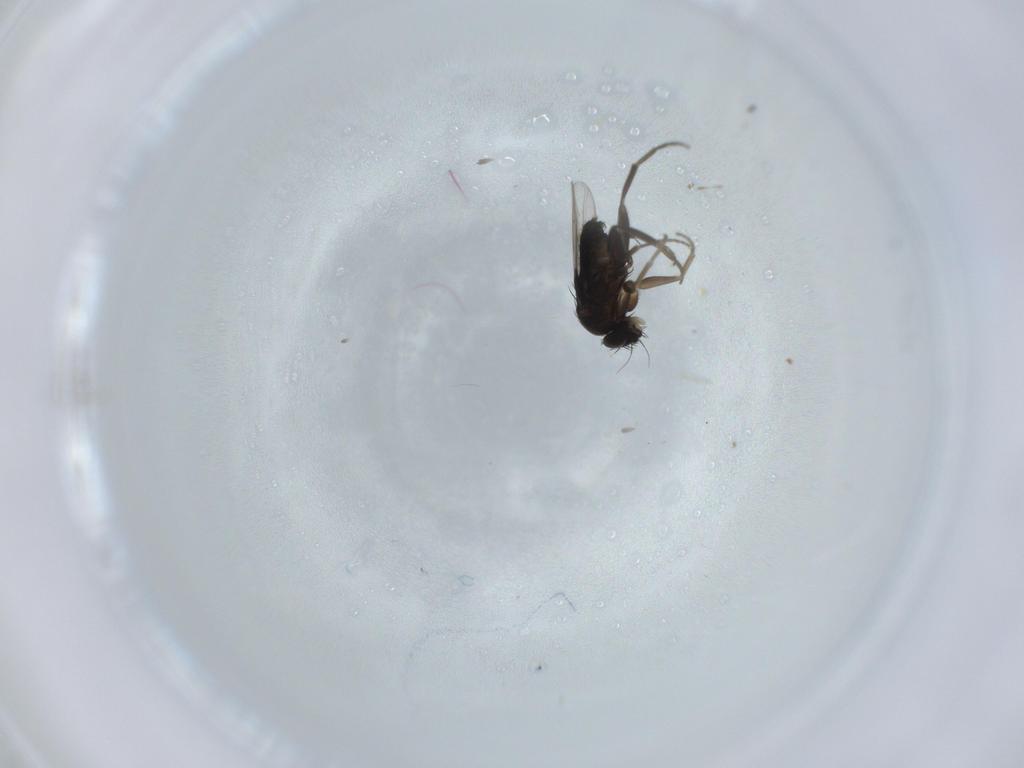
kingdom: Animalia
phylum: Arthropoda
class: Insecta
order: Diptera
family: Phoridae
